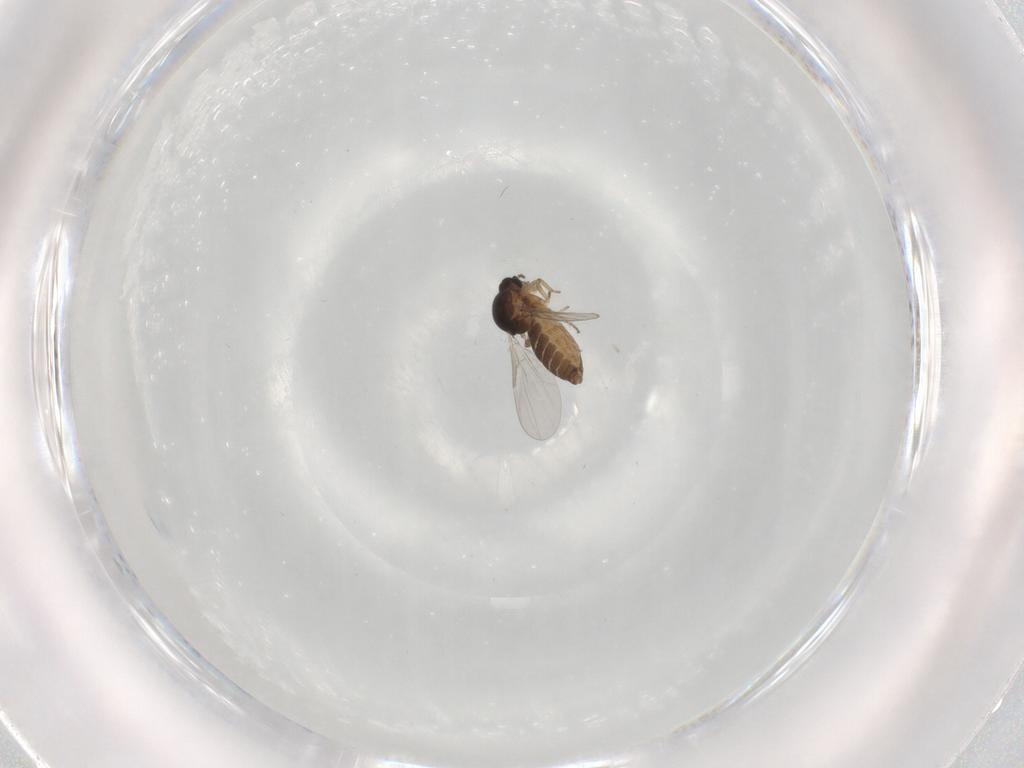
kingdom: Animalia
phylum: Arthropoda
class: Insecta
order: Diptera
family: Ceratopogonidae
